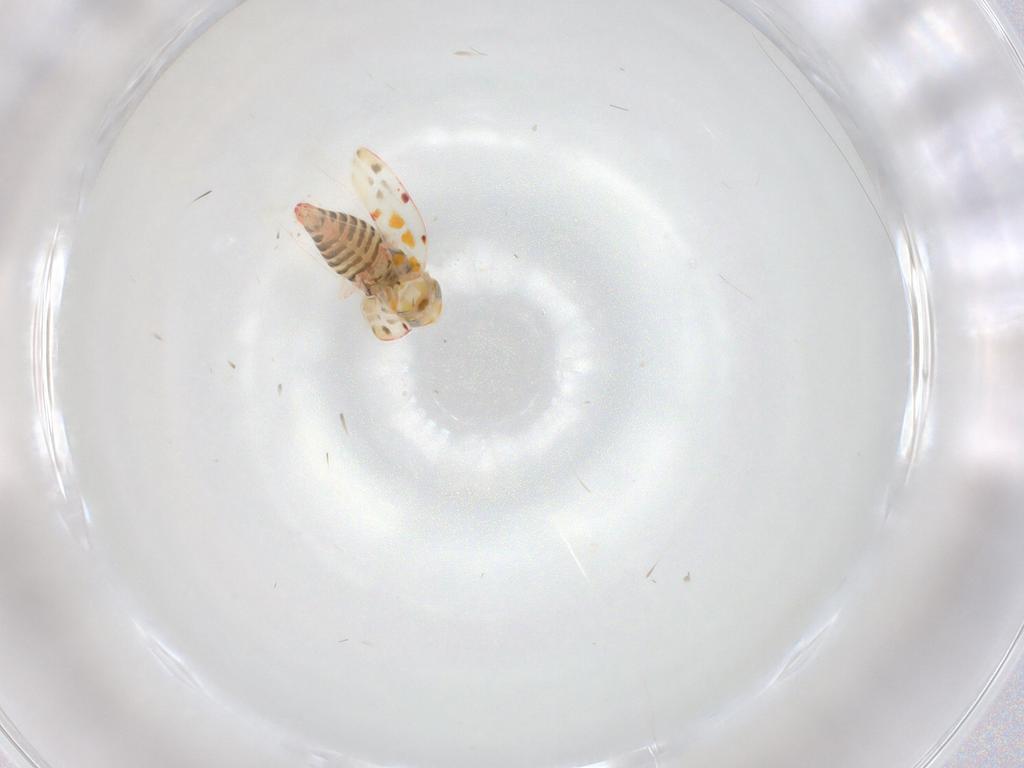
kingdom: Animalia
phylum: Arthropoda
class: Insecta
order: Hemiptera
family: Cicadellidae
